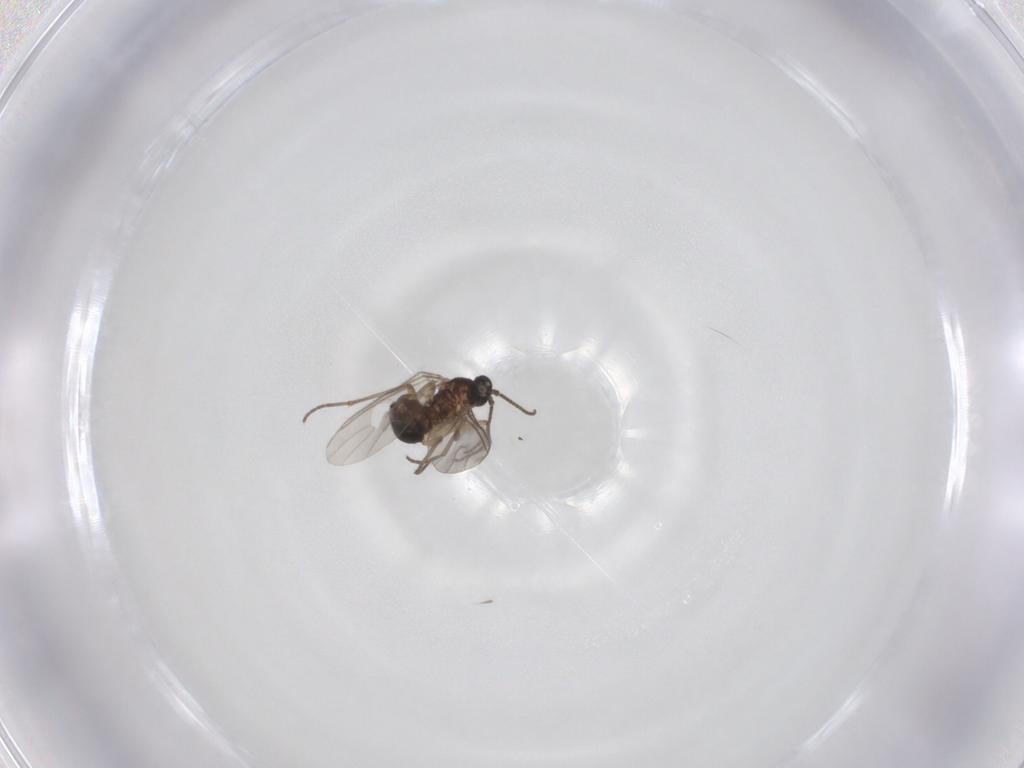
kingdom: Animalia
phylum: Arthropoda
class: Insecta
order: Diptera
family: Sciaridae
